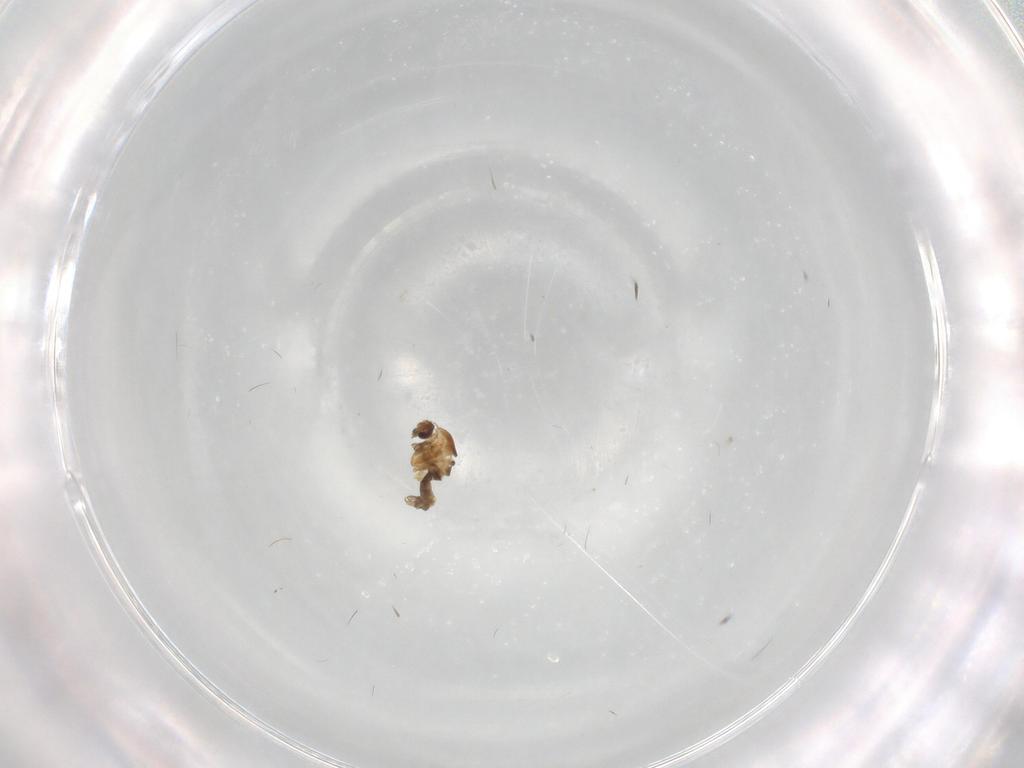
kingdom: Animalia
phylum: Arthropoda
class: Insecta
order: Diptera
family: Chironomidae
